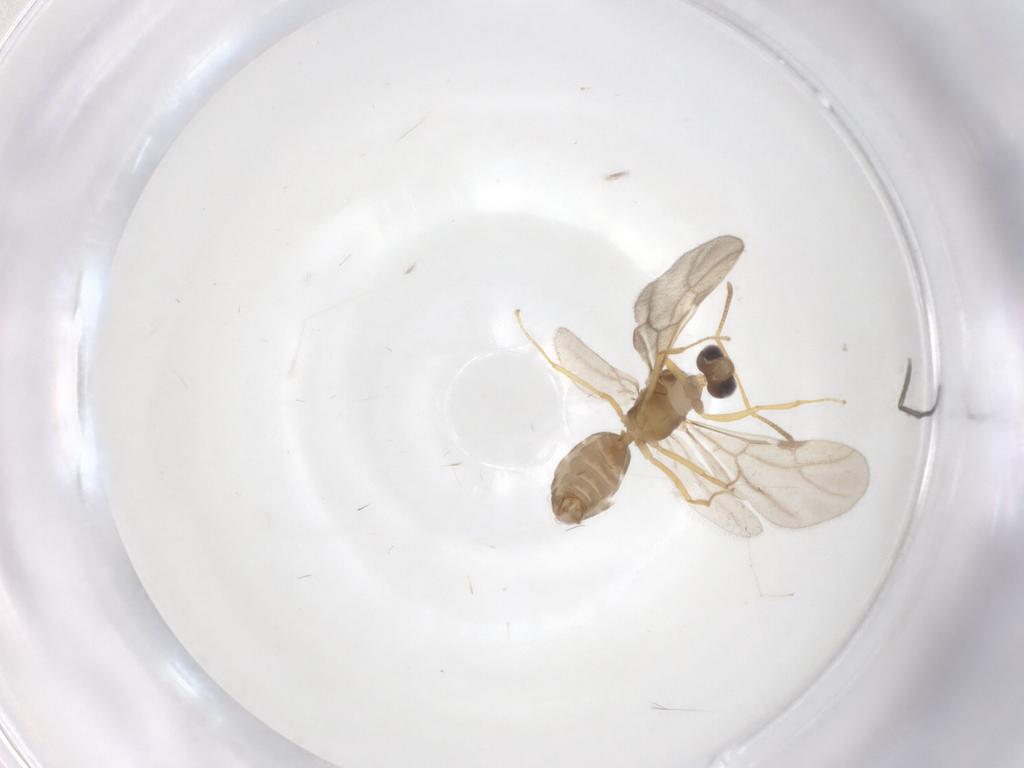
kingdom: Animalia
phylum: Arthropoda
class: Insecta
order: Hymenoptera
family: Formicidae
